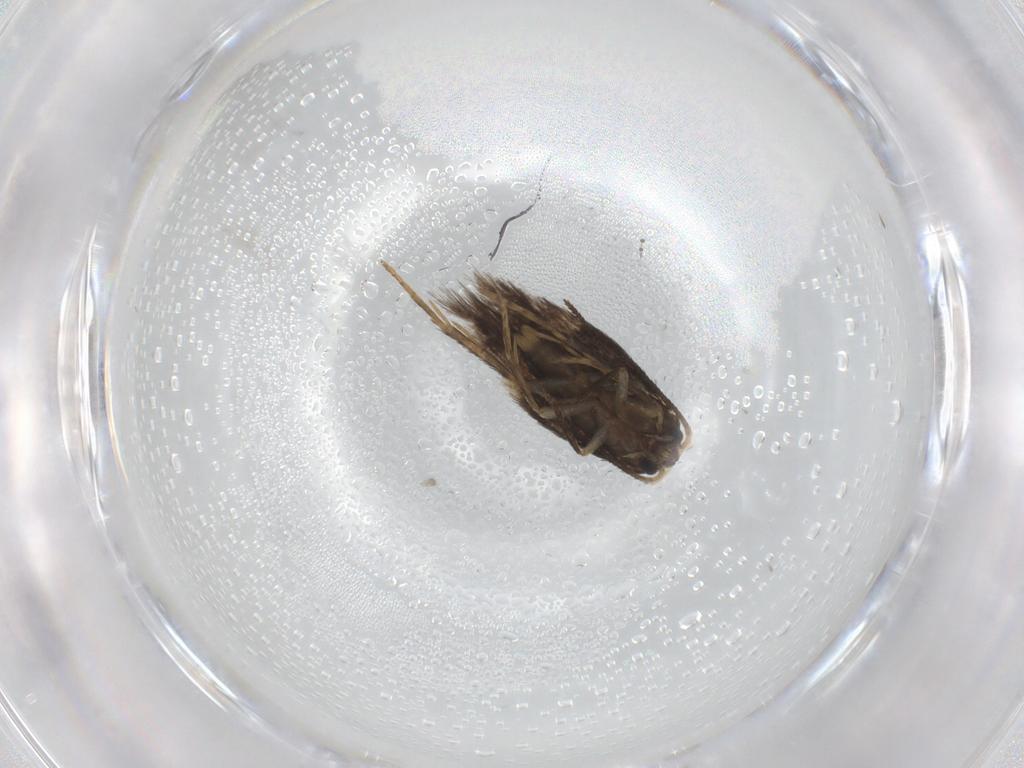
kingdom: Animalia
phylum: Arthropoda
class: Insecta
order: Lepidoptera
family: Nepticulidae
